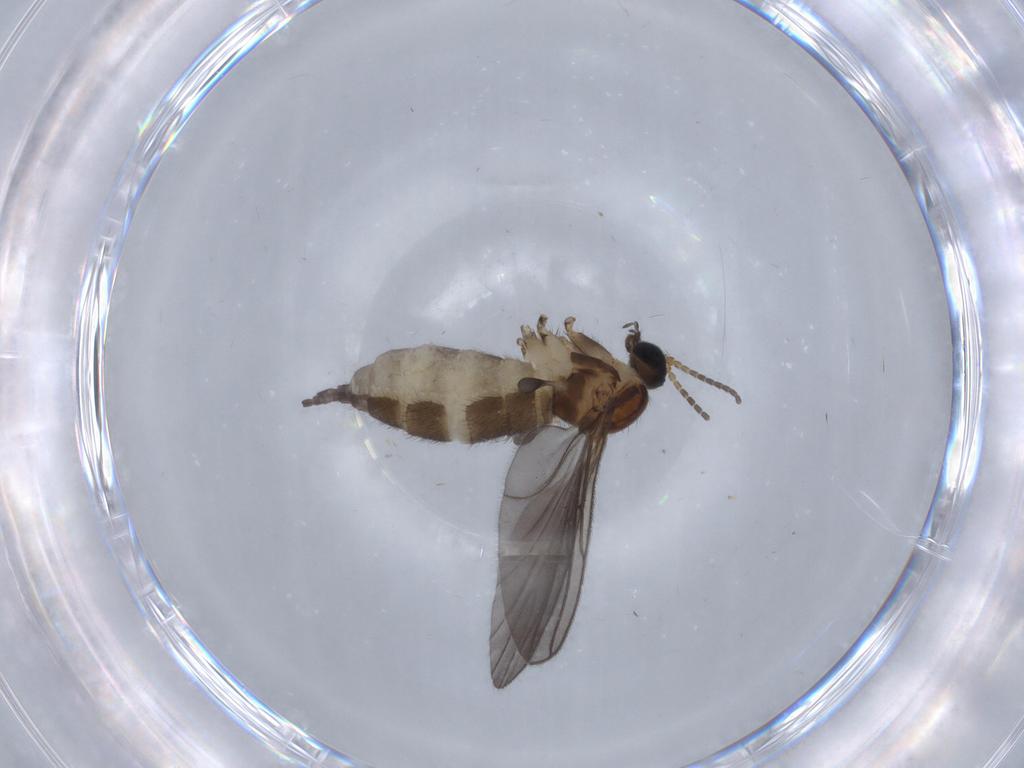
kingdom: Animalia
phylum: Arthropoda
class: Insecta
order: Diptera
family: Sciaridae
